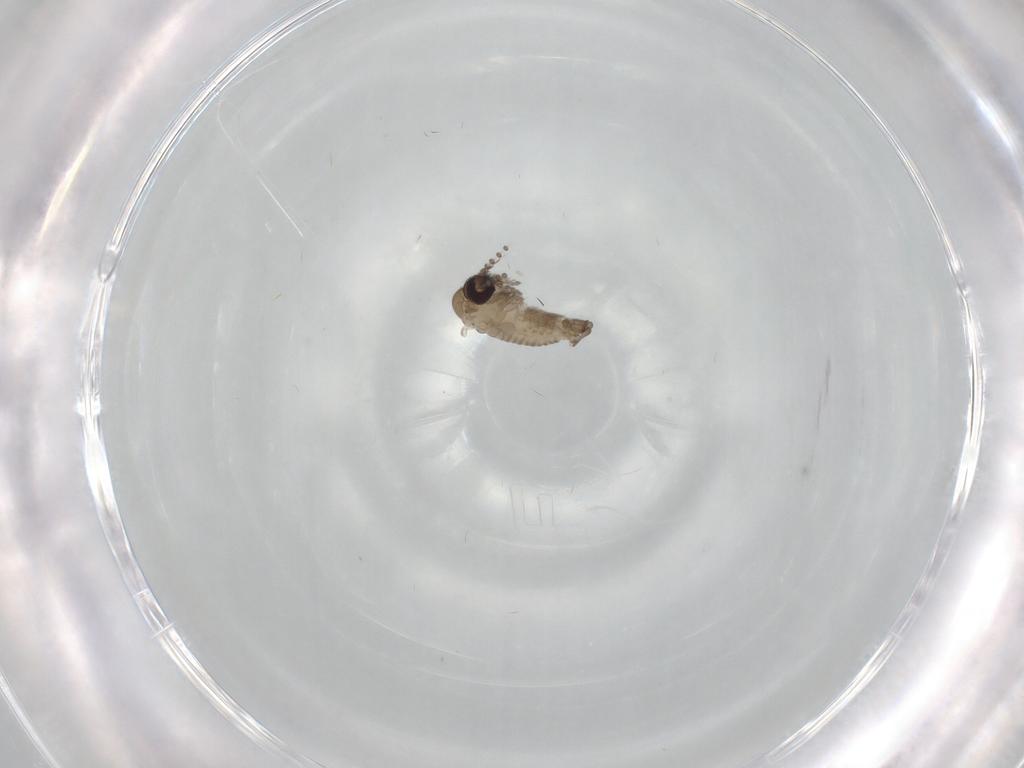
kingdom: Animalia
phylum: Arthropoda
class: Insecta
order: Diptera
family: Psychodidae
